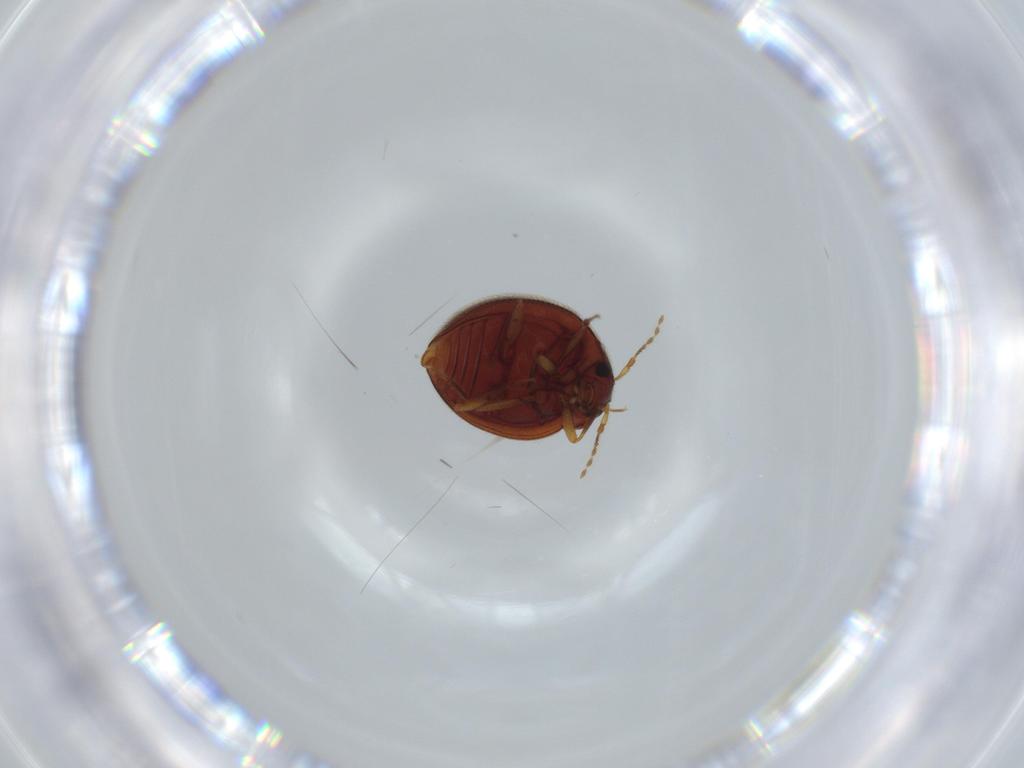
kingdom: Animalia
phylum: Arthropoda
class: Insecta
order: Coleoptera
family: Anamorphidae
